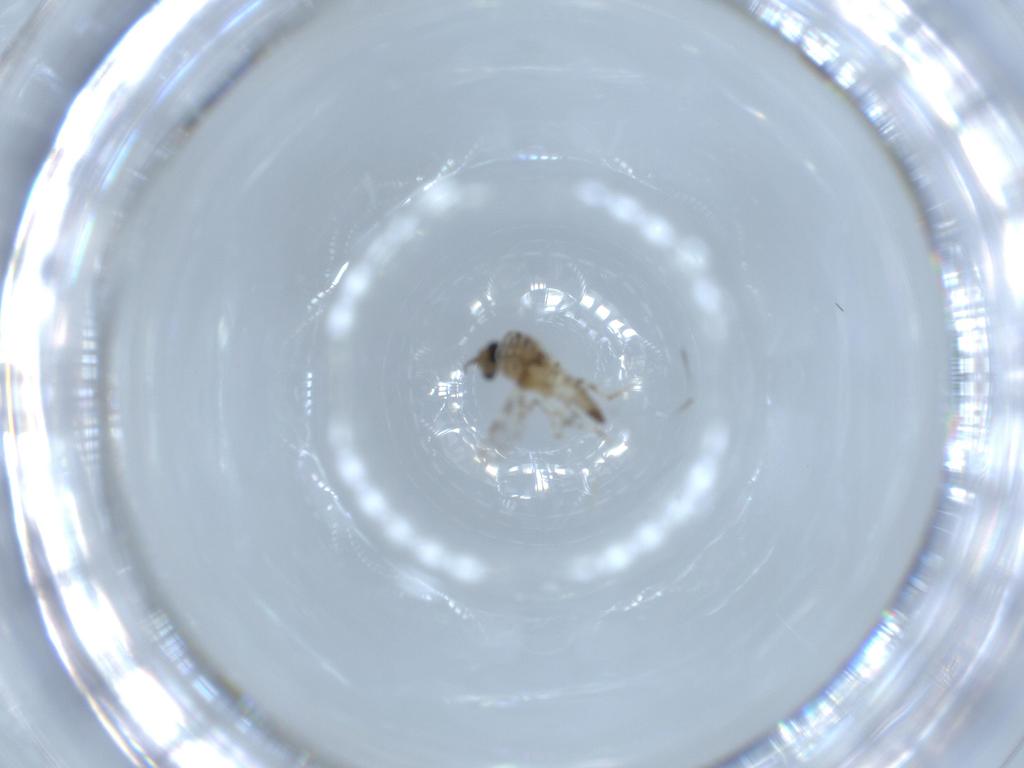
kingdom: Animalia
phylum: Arthropoda
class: Insecta
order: Diptera
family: Ceratopogonidae
